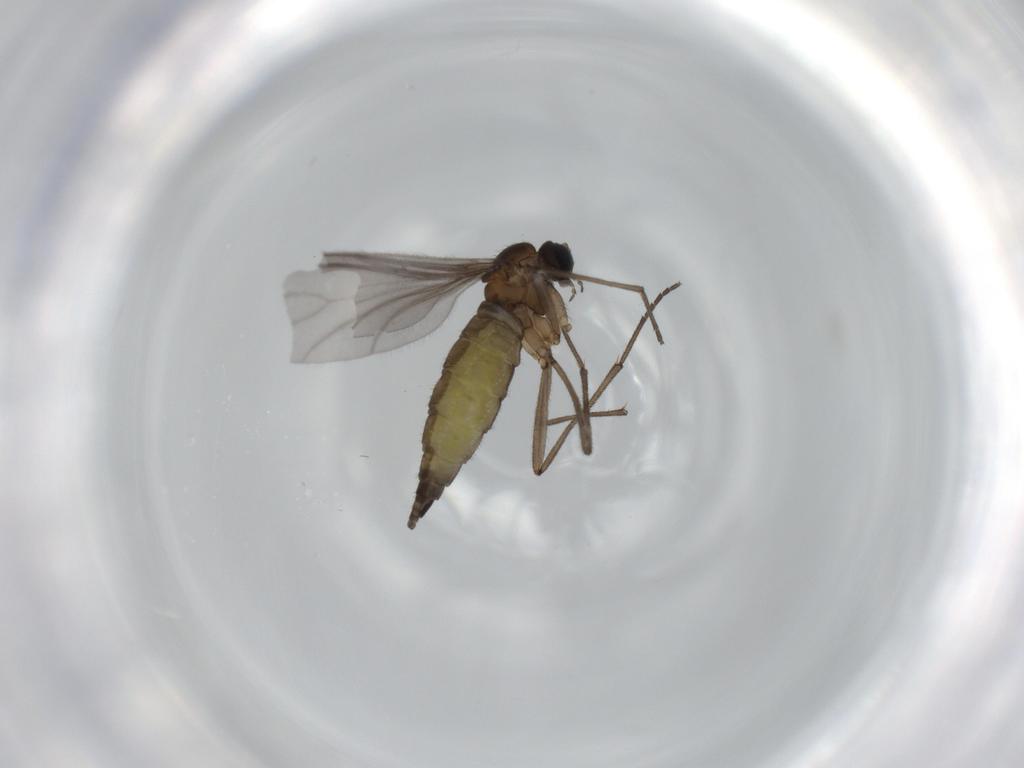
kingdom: Animalia
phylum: Arthropoda
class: Insecta
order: Diptera
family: Sciaridae
